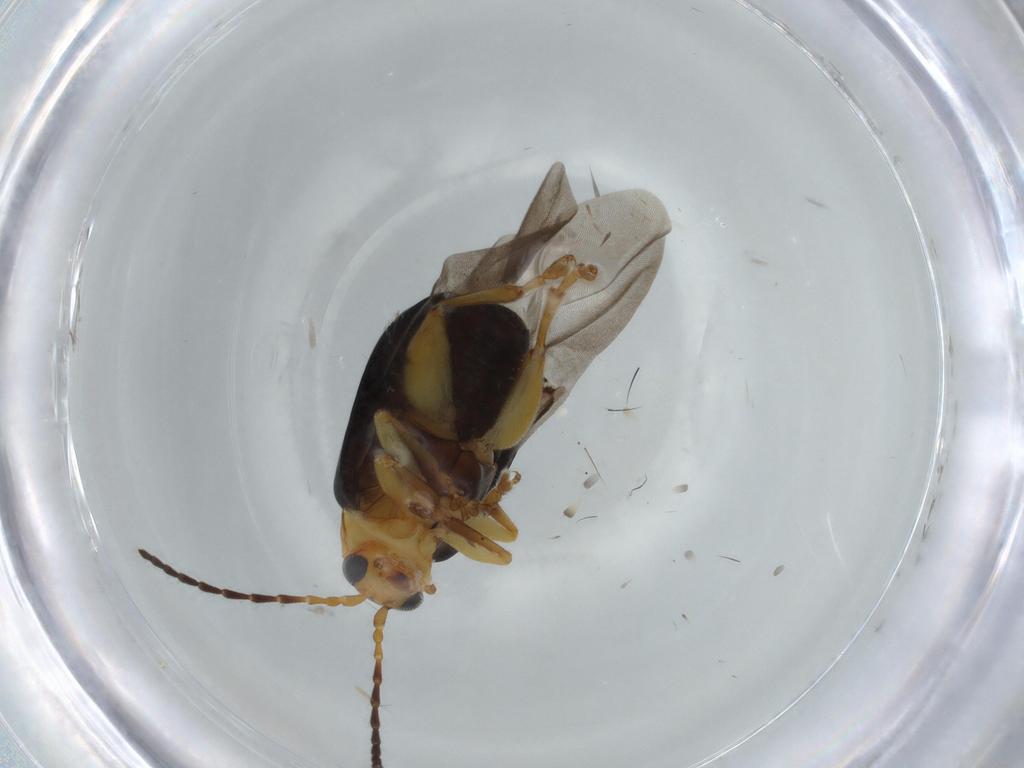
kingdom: Animalia
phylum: Arthropoda
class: Insecta
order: Coleoptera
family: Chrysomelidae
